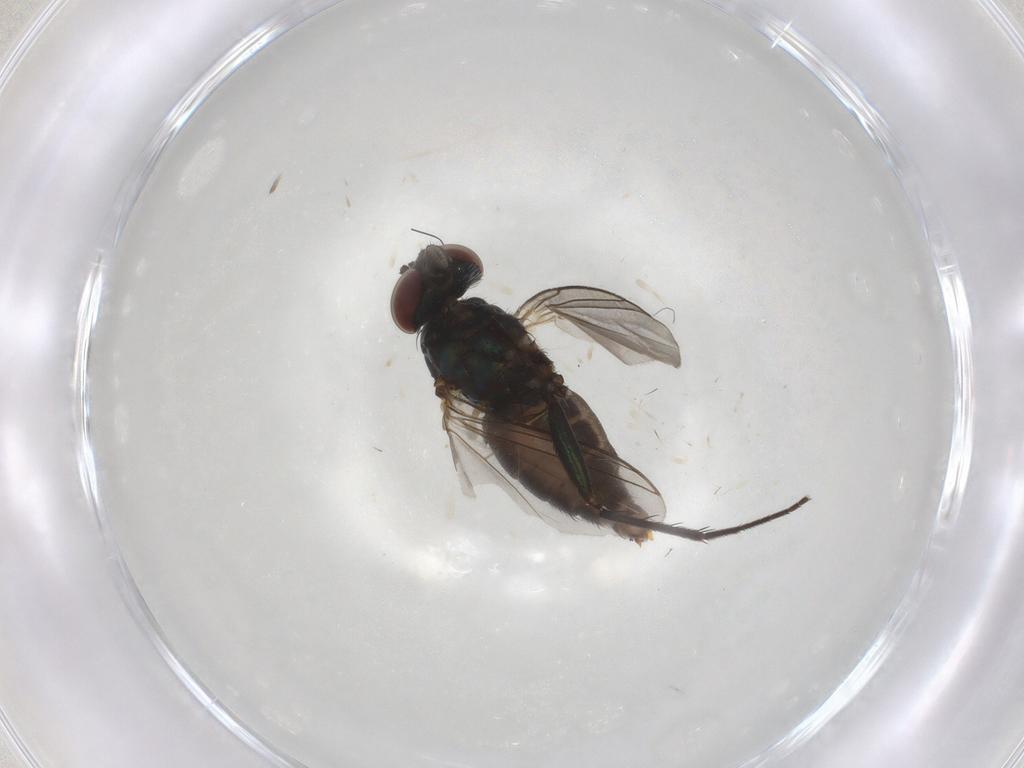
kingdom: Animalia
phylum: Arthropoda
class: Insecta
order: Diptera
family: Dolichopodidae
